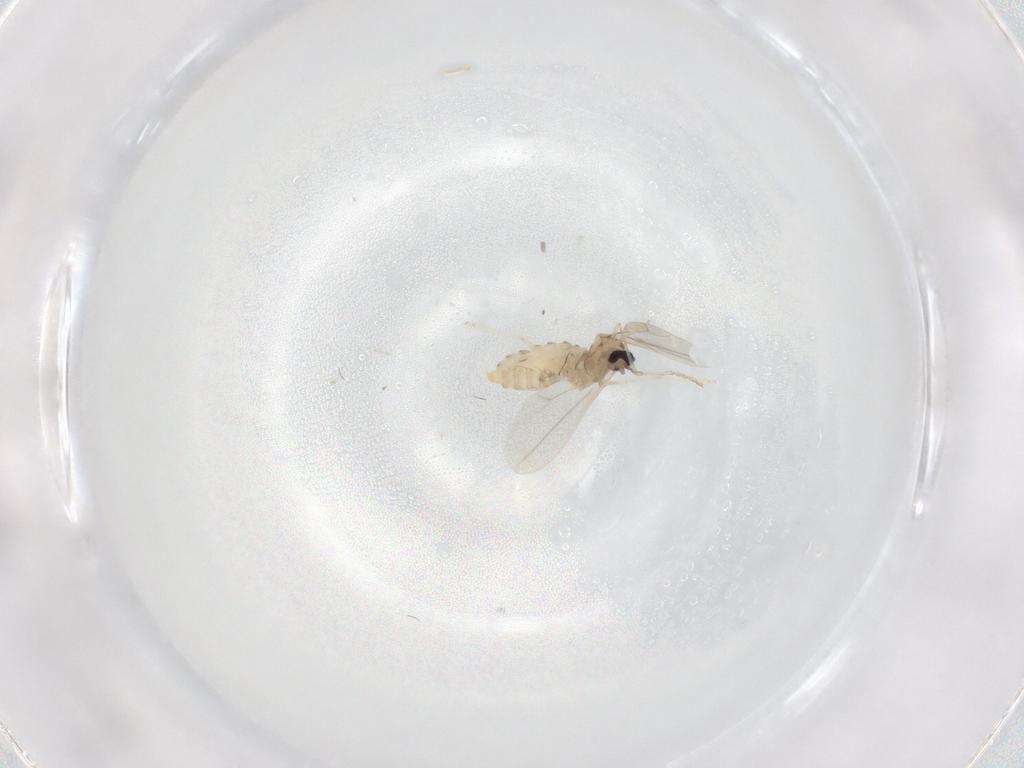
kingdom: Animalia
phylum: Arthropoda
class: Insecta
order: Diptera
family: Cecidomyiidae
